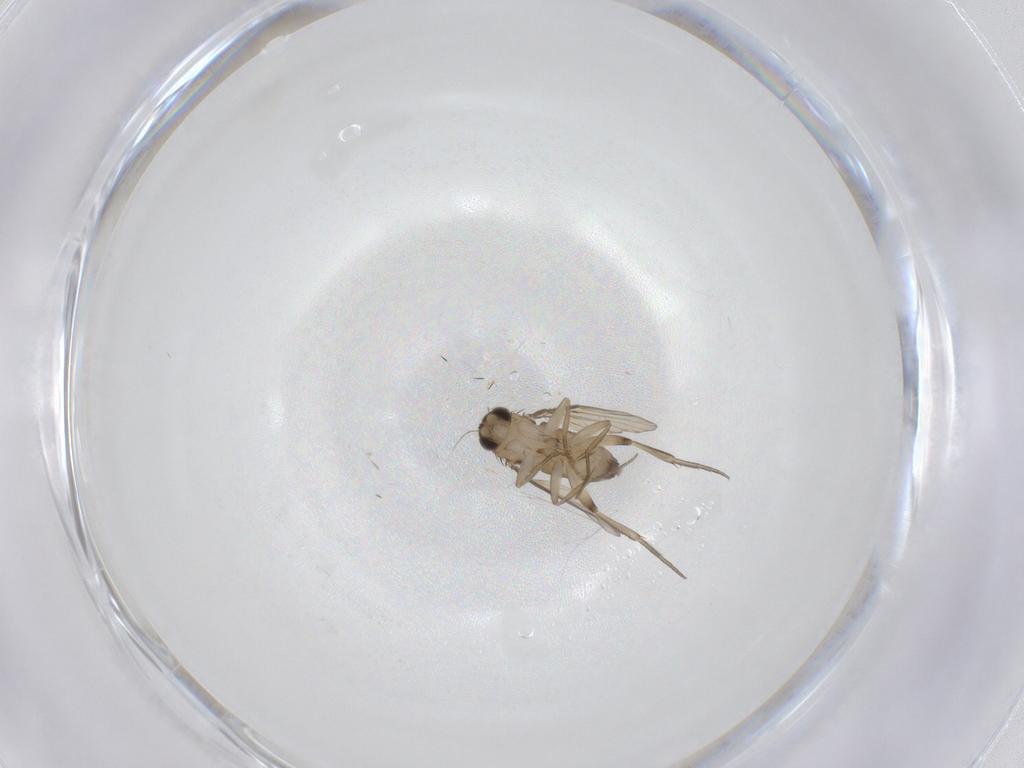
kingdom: Animalia
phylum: Arthropoda
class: Insecta
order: Diptera
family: Phoridae
